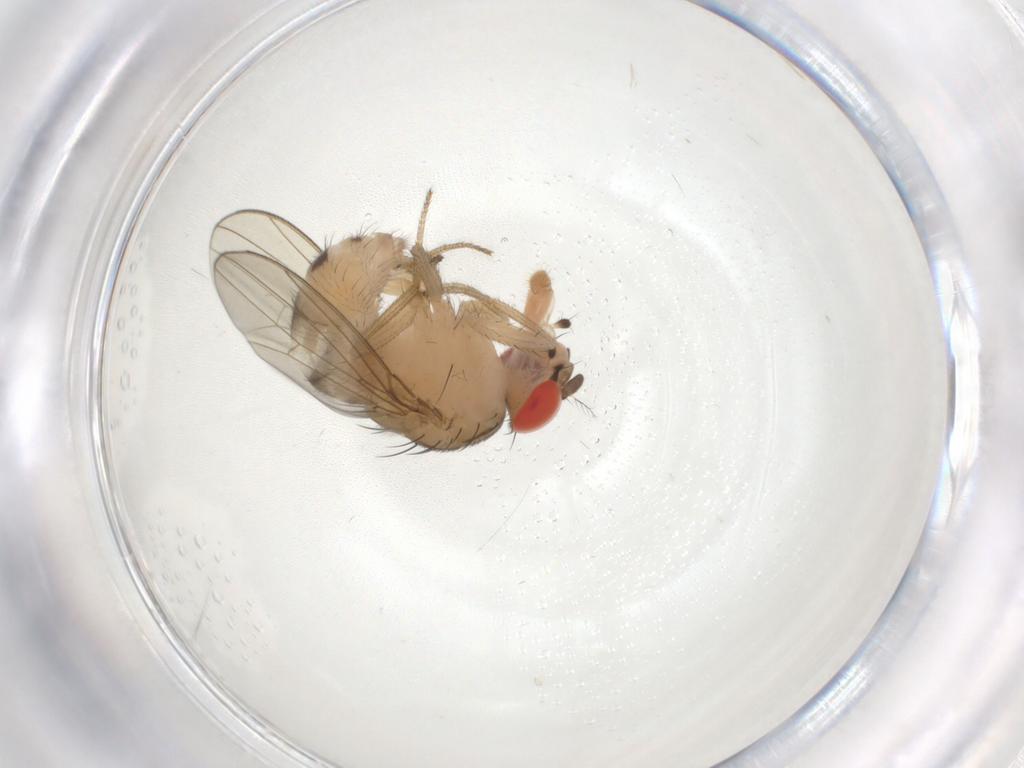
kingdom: Animalia
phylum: Arthropoda
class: Insecta
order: Diptera
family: Drosophilidae
